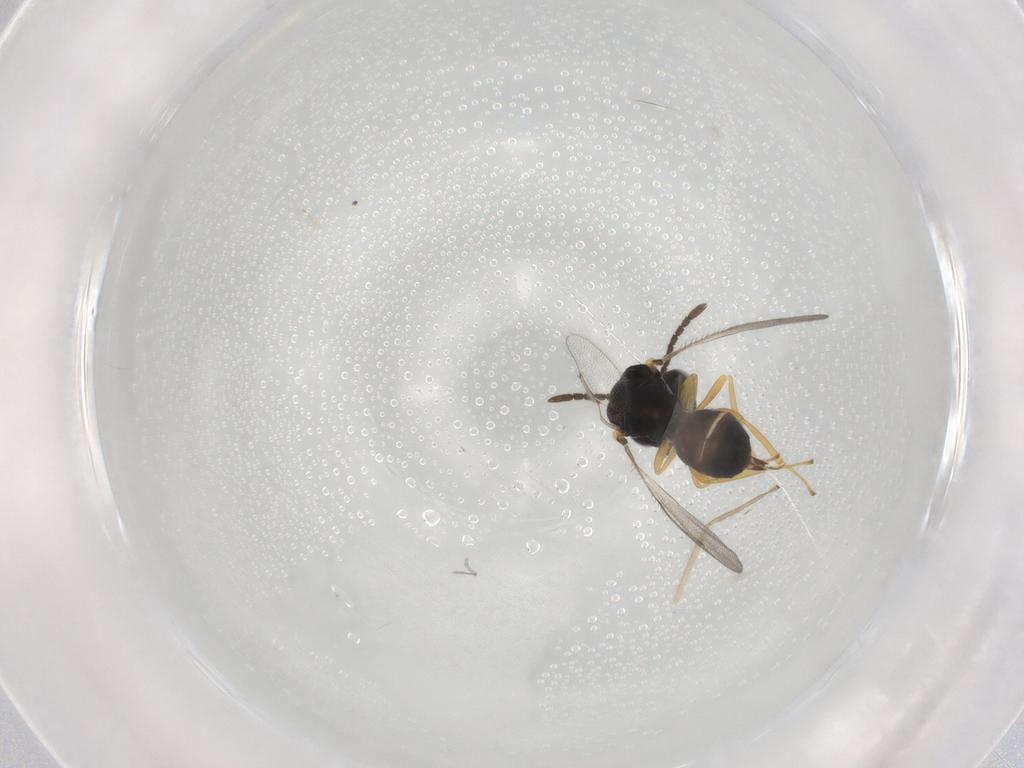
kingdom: Animalia
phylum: Arthropoda
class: Insecta
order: Hymenoptera
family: Pteromalidae
